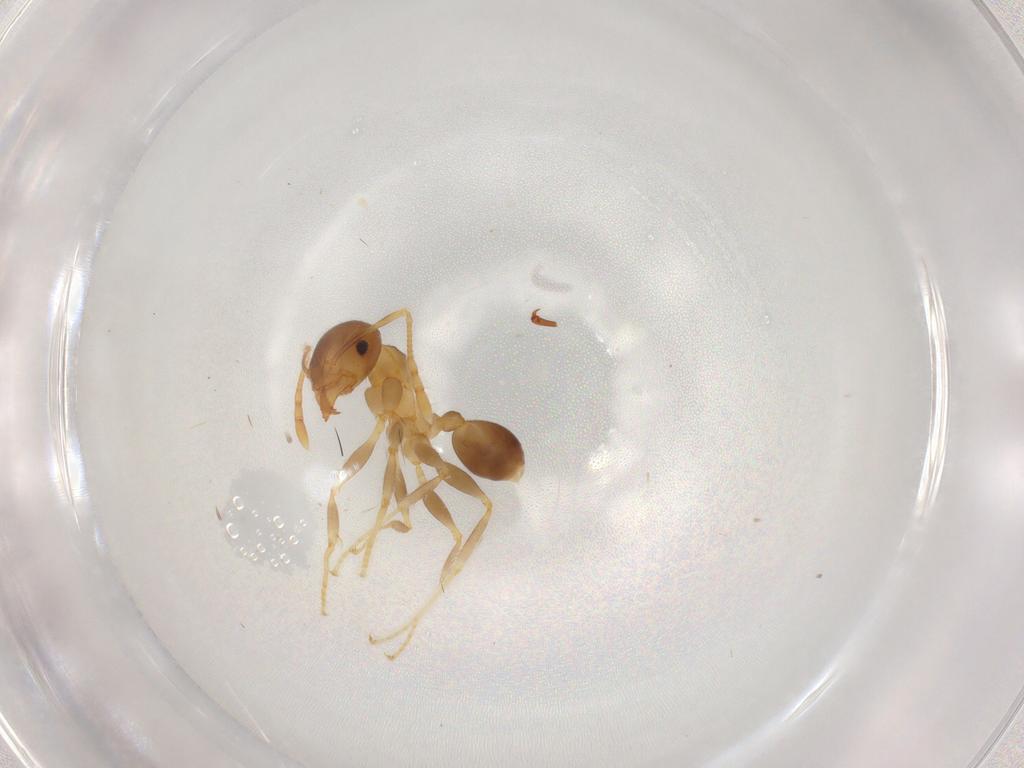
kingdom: Animalia
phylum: Arthropoda
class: Insecta
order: Hymenoptera
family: Formicidae
